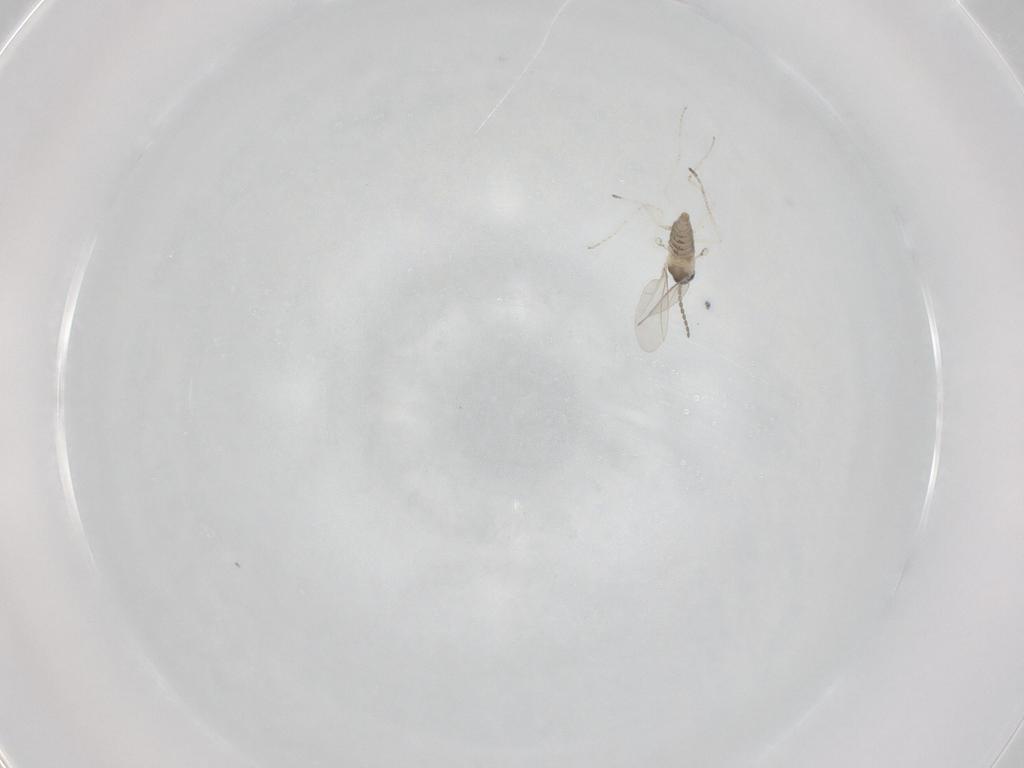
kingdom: Animalia
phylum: Arthropoda
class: Insecta
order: Diptera
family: Cecidomyiidae
